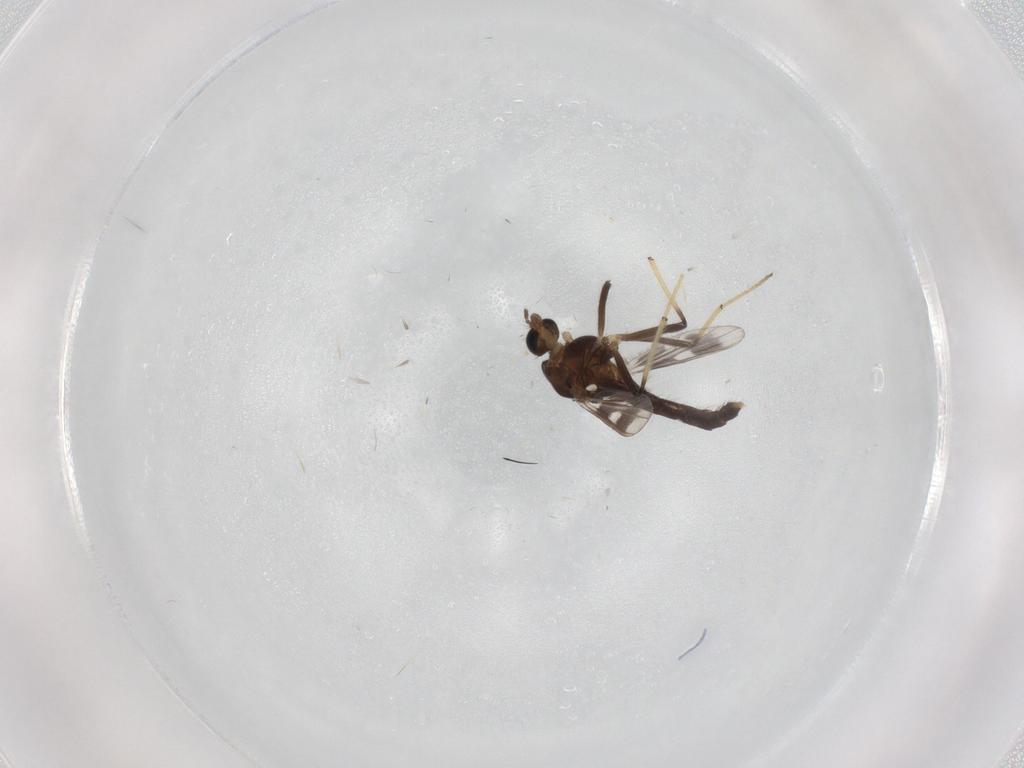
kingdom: Animalia
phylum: Arthropoda
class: Insecta
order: Diptera
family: Chironomidae
